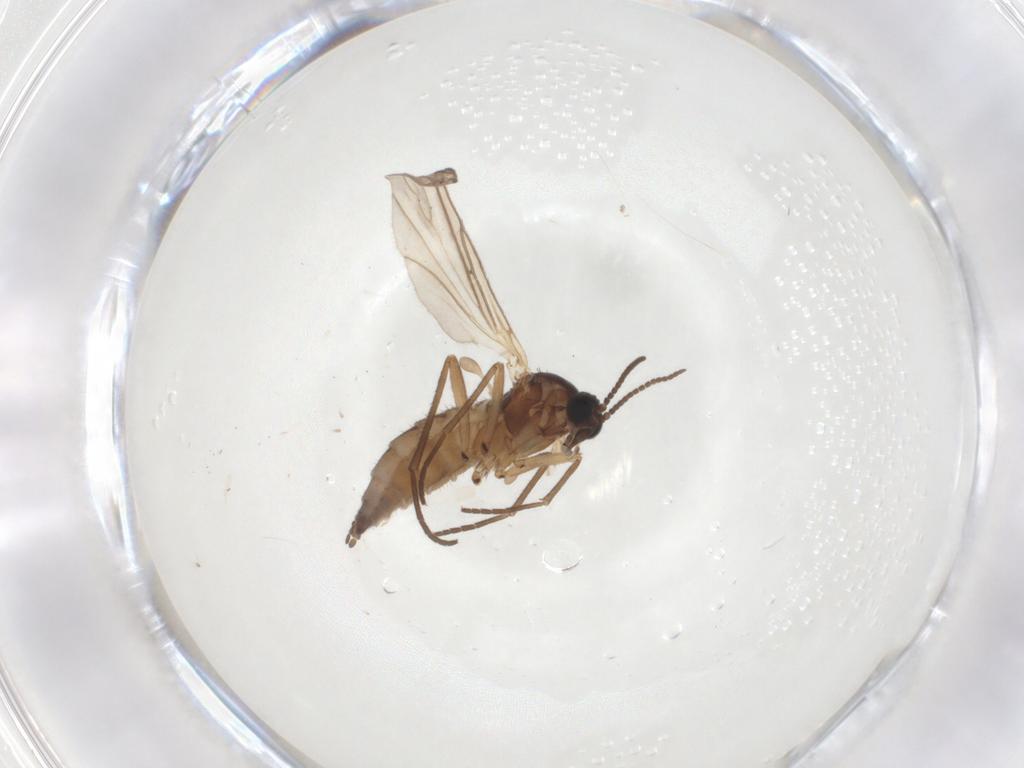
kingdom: Animalia
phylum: Arthropoda
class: Insecta
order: Diptera
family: Sciaridae
